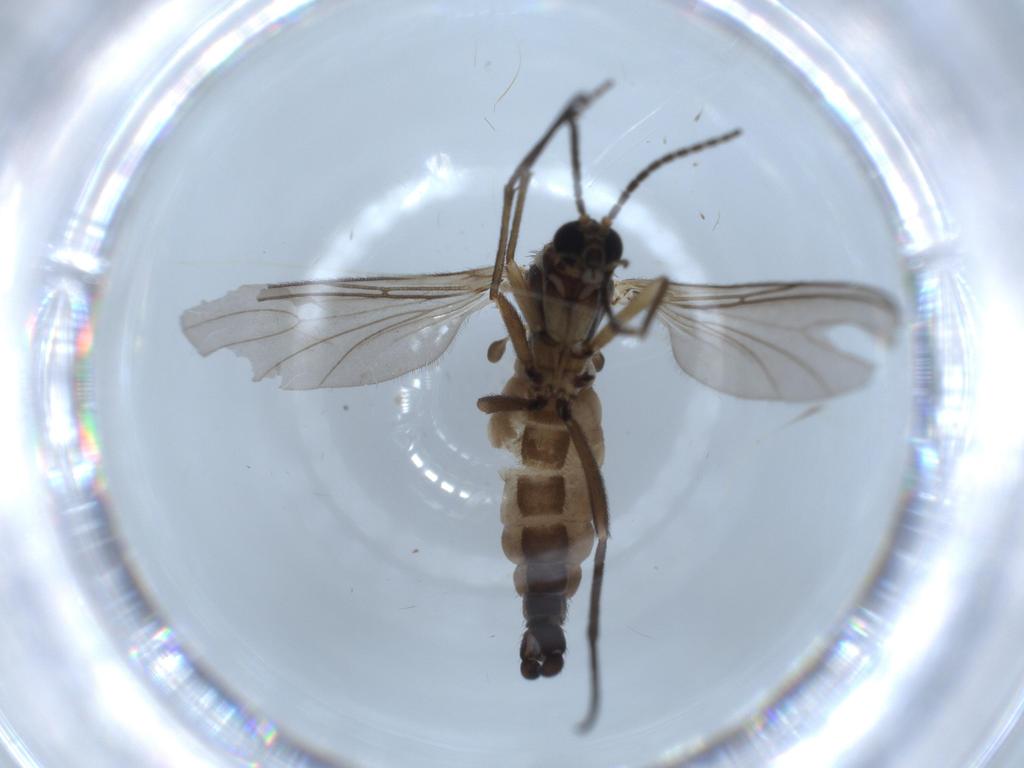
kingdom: Animalia
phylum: Arthropoda
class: Insecta
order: Diptera
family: Sciaridae
